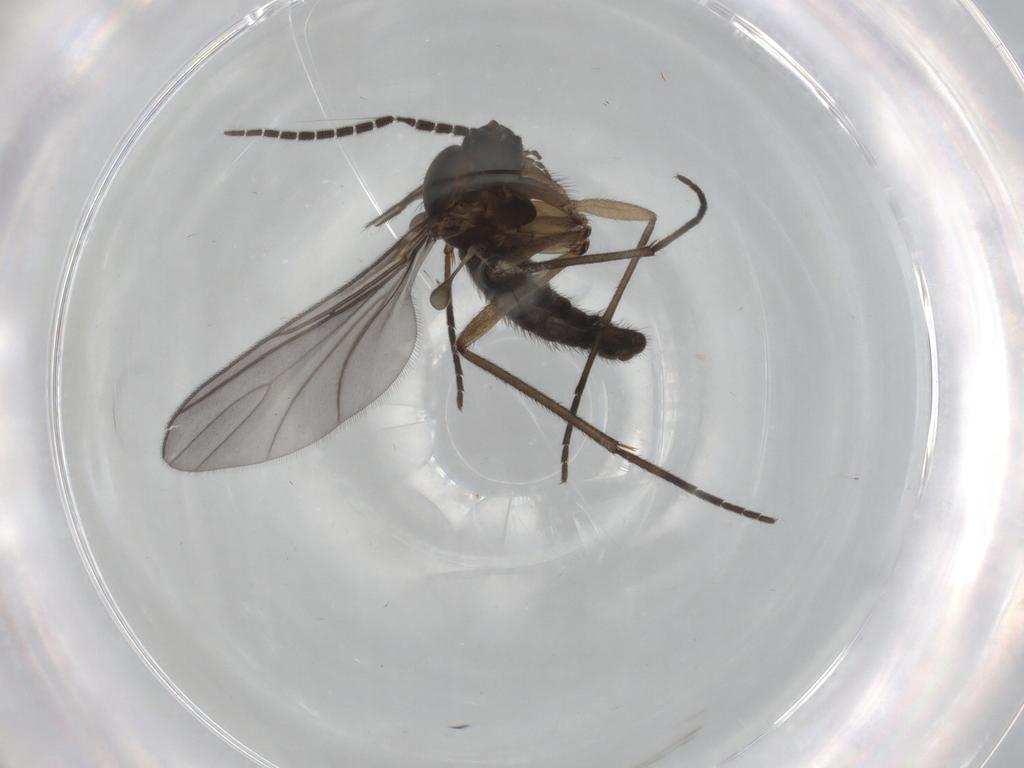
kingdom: Animalia
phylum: Arthropoda
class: Insecta
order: Diptera
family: Sciaridae
